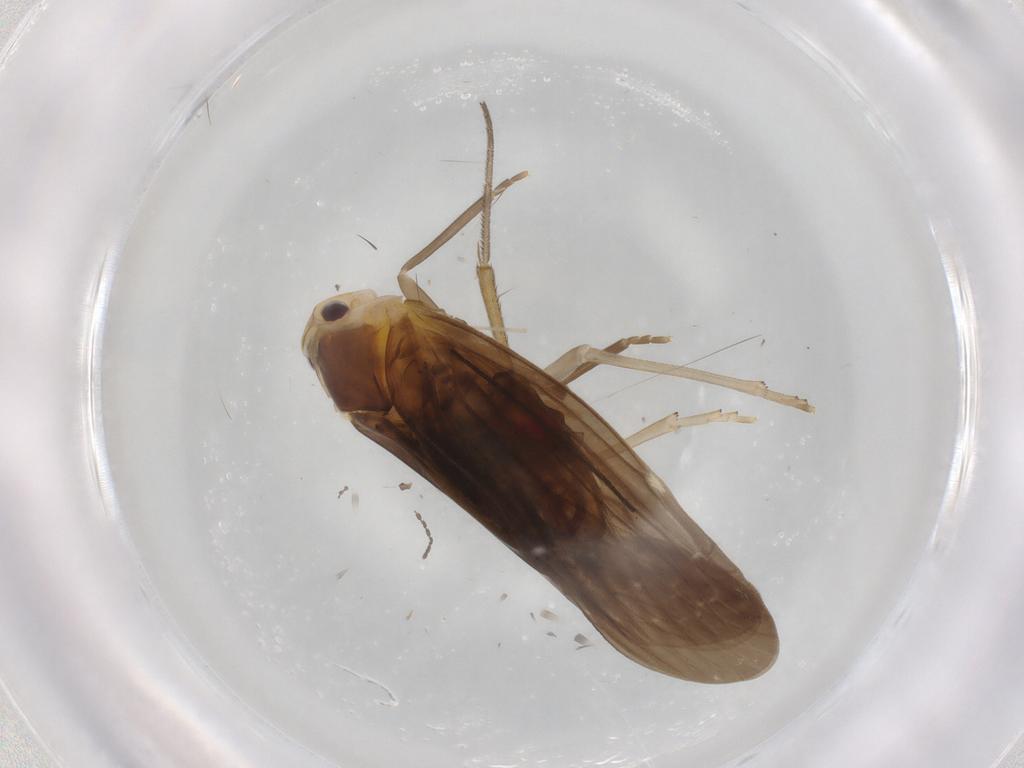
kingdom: Animalia
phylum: Arthropoda
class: Insecta
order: Hemiptera
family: Derbidae
